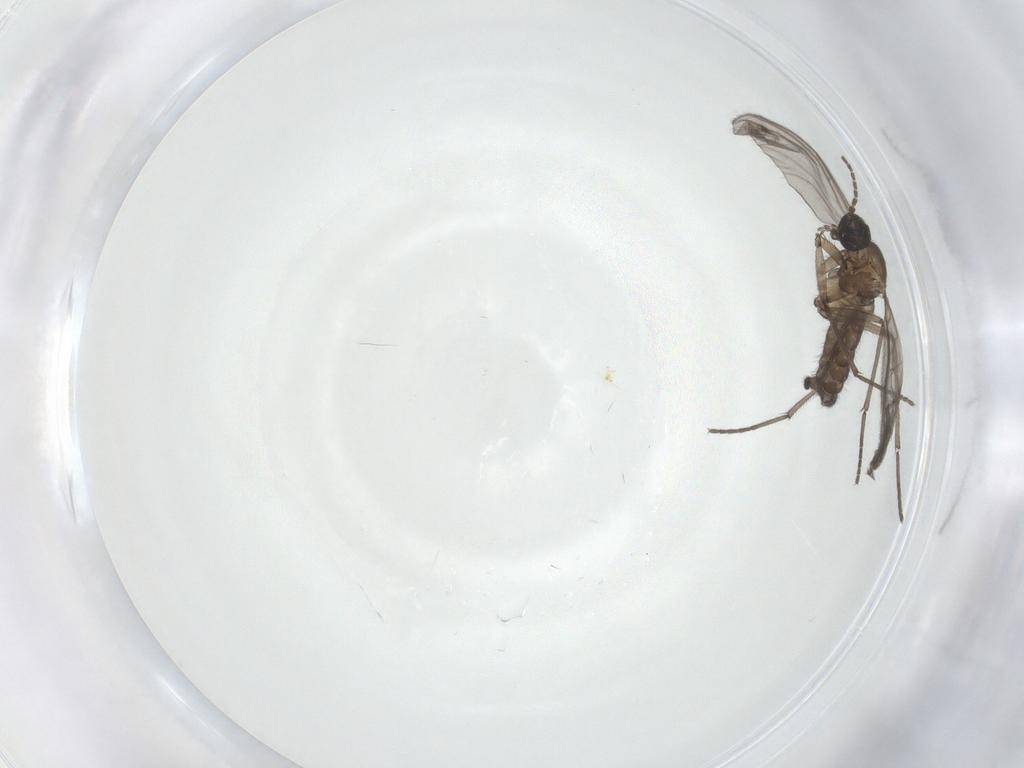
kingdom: Animalia
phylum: Arthropoda
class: Insecta
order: Diptera
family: Sciaridae
